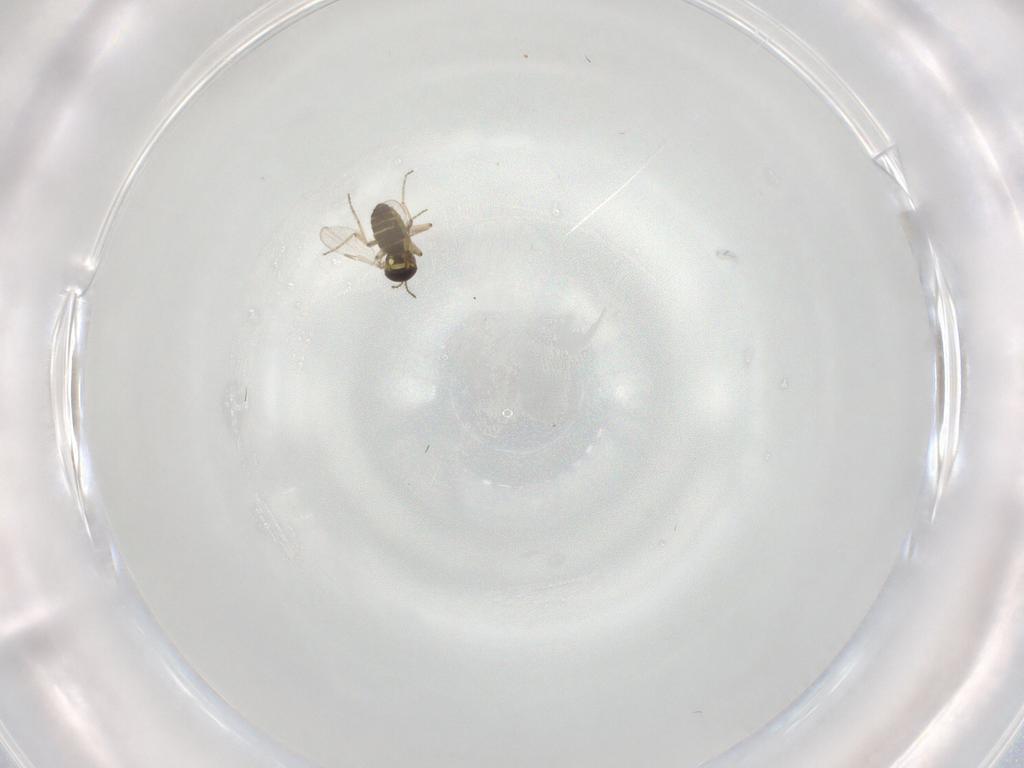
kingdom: Animalia
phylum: Arthropoda
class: Insecta
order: Diptera
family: Ceratopogonidae
